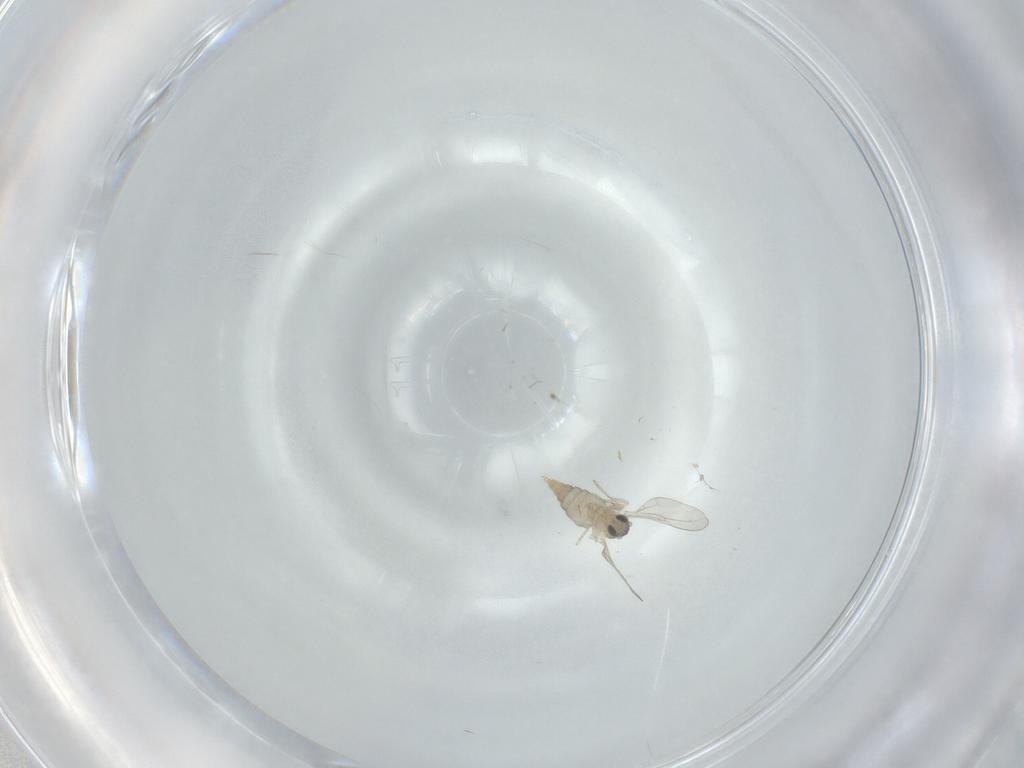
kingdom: Animalia
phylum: Arthropoda
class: Insecta
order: Diptera
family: Cecidomyiidae
